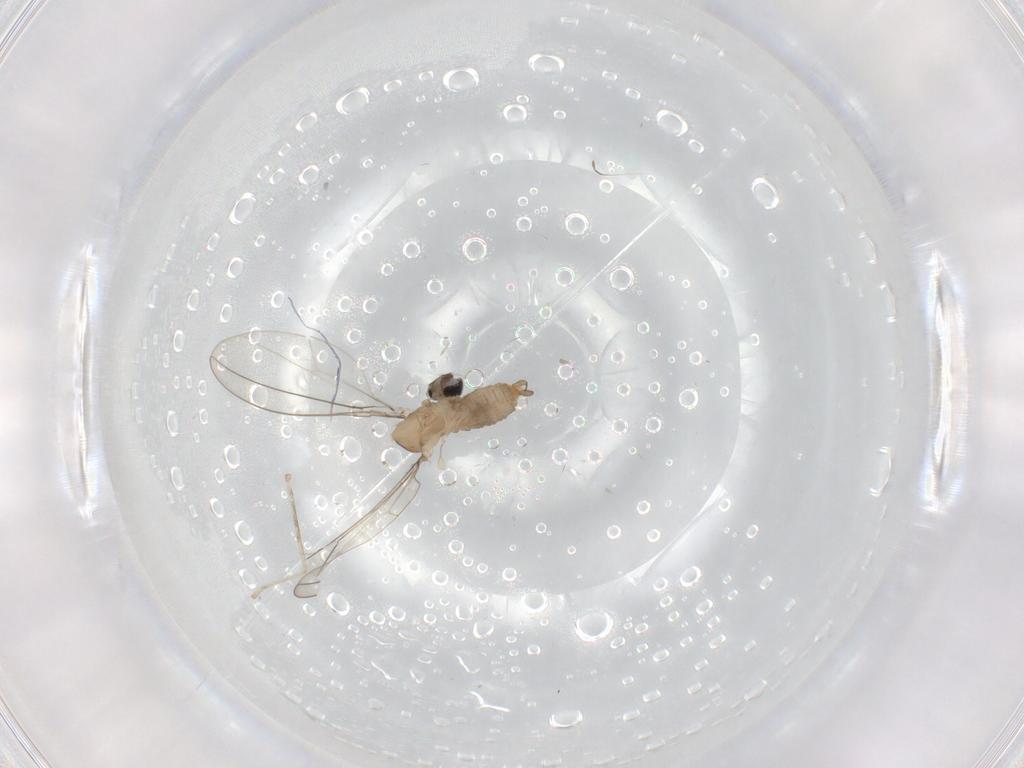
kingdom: Animalia
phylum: Arthropoda
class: Insecta
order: Diptera
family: Cecidomyiidae
